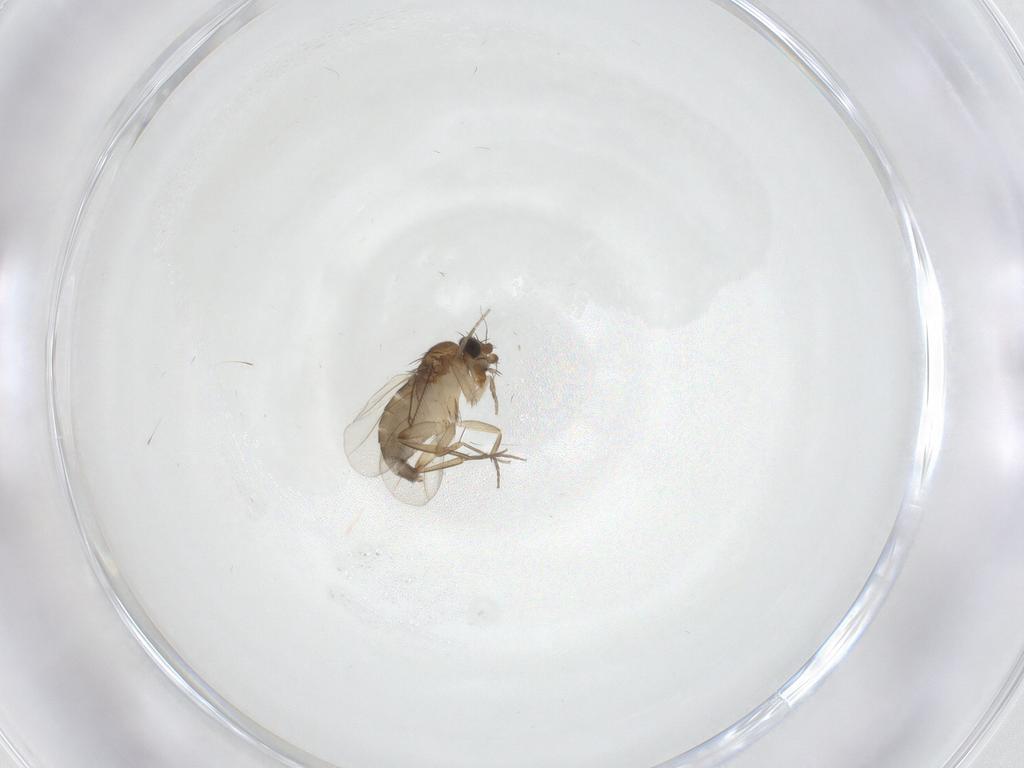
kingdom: Animalia
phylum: Arthropoda
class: Insecta
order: Diptera
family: Phoridae
